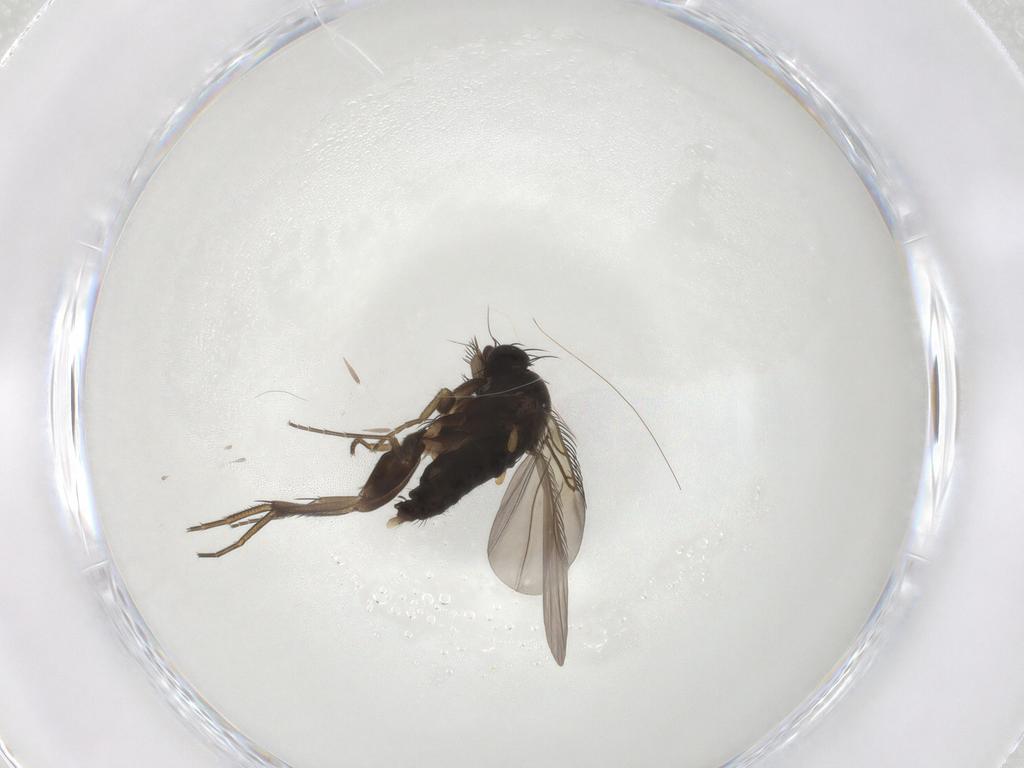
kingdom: Animalia
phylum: Arthropoda
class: Insecta
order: Diptera
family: Phoridae
